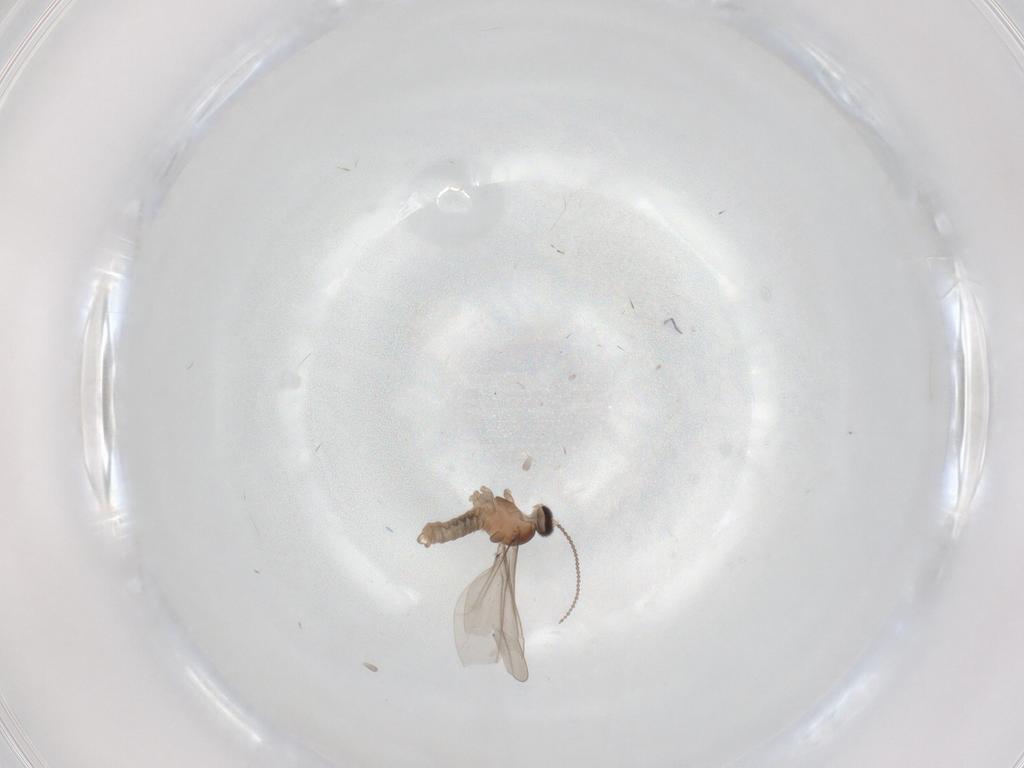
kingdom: Animalia
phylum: Arthropoda
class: Insecta
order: Diptera
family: Cecidomyiidae
